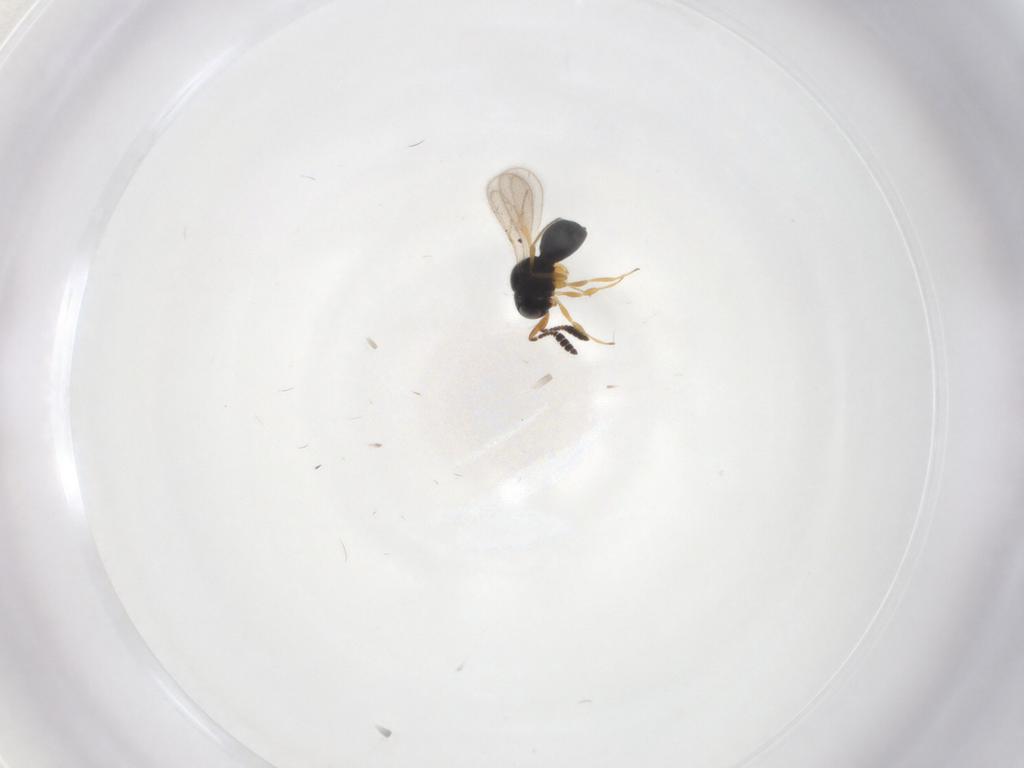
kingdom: Animalia
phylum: Arthropoda
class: Insecta
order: Hymenoptera
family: Scelionidae
